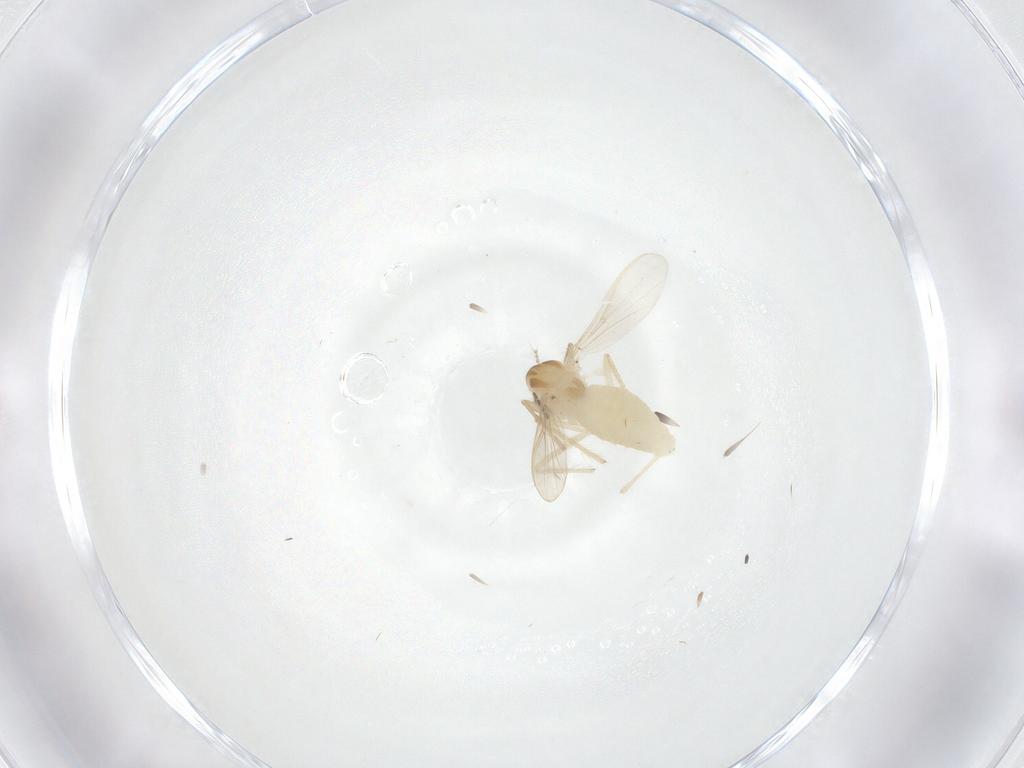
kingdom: Animalia
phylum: Arthropoda
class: Insecta
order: Diptera
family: Chironomidae
